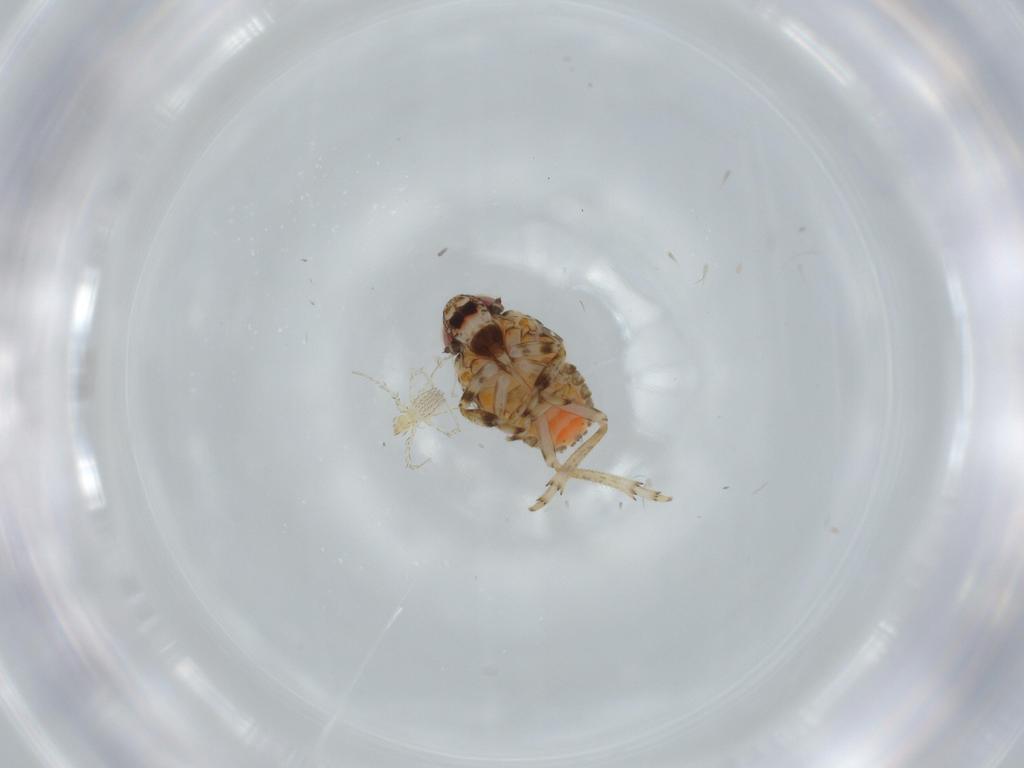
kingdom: Animalia
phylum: Arthropoda
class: Insecta
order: Hemiptera
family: Issidae
